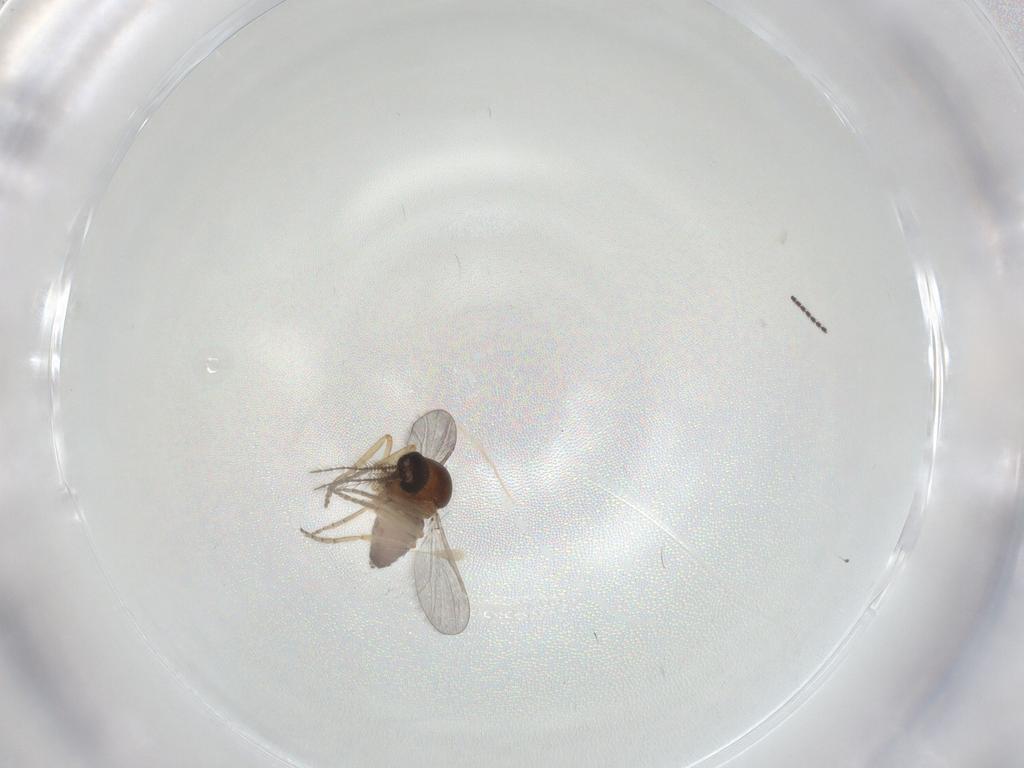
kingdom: Animalia
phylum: Arthropoda
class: Insecta
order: Diptera
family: Ceratopogonidae
